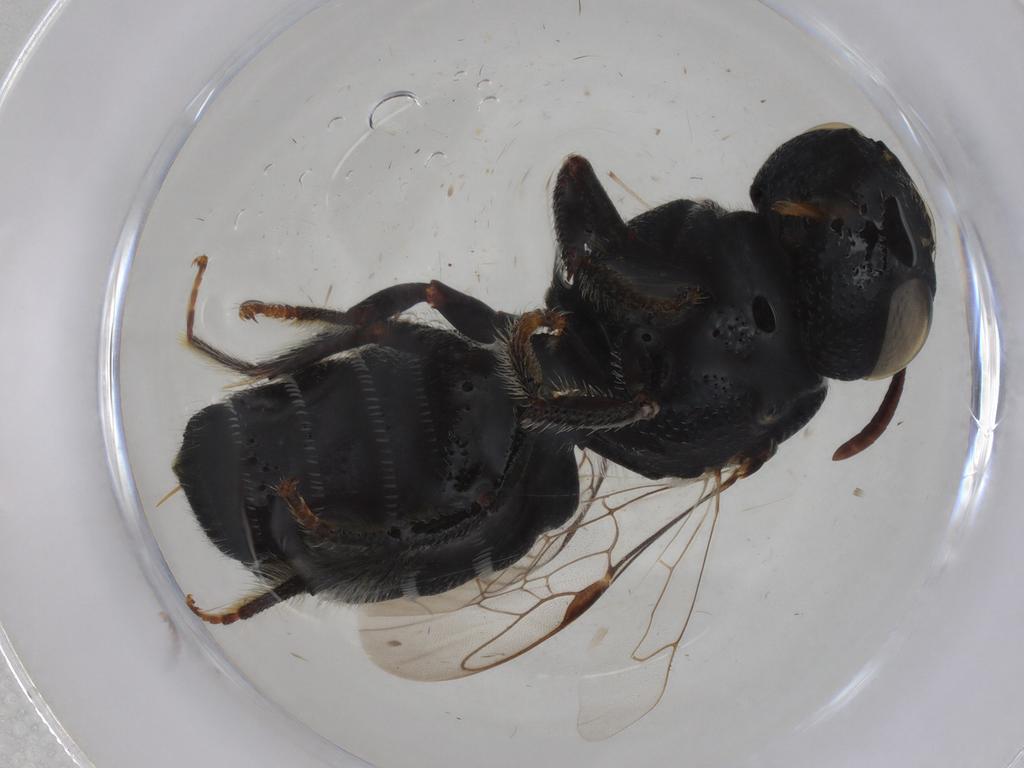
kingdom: Animalia
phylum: Arthropoda
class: Insecta
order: Hymenoptera
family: Apidae
